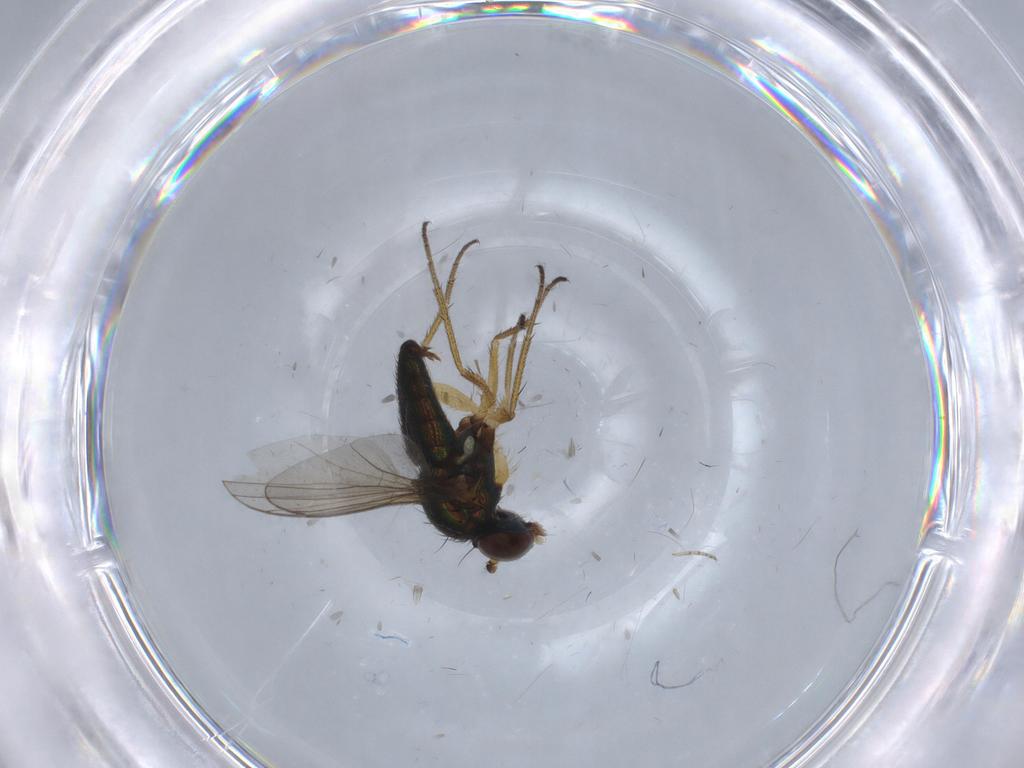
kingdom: Animalia
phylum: Arthropoda
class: Insecta
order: Diptera
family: Cecidomyiidae
